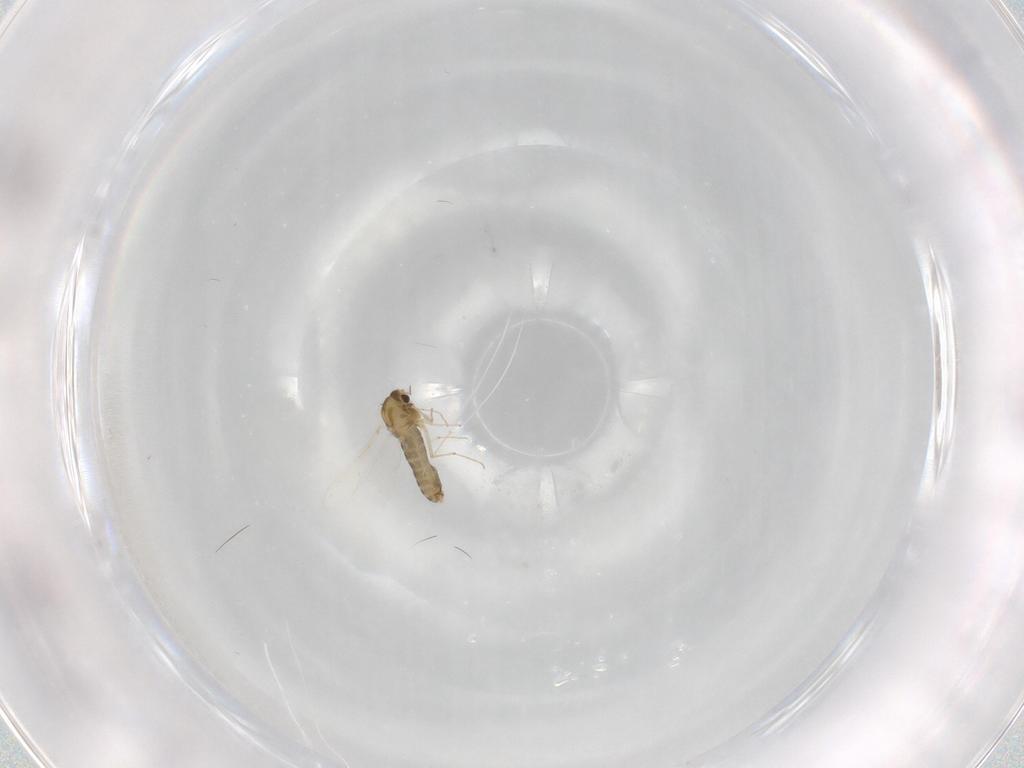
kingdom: Animalia
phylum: Arthropoda
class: Insecta
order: Diptera
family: Chironomidae
